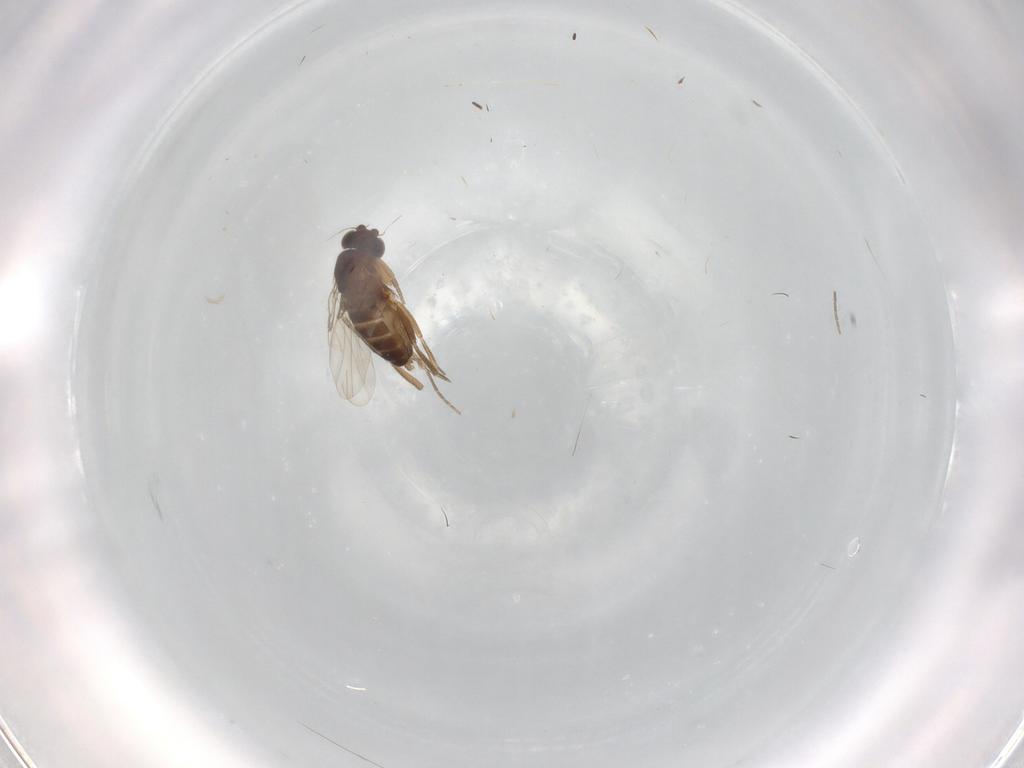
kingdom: Animalia
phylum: Arthropoda
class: Insecta
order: Diptera
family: Phoridae
